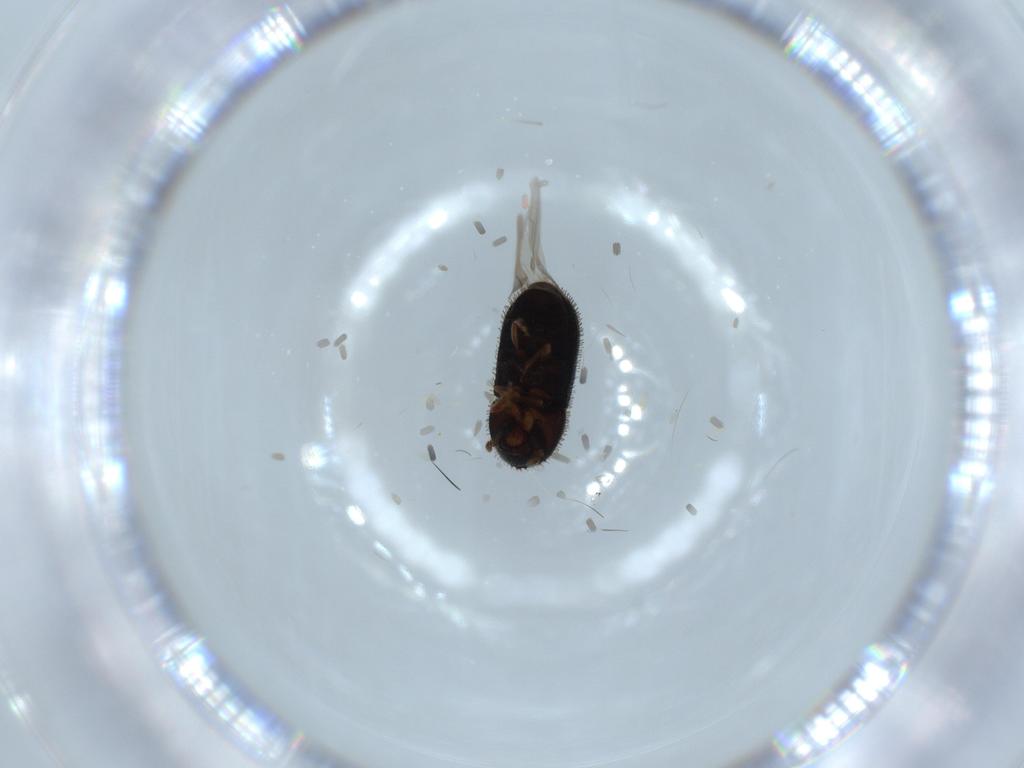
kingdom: Animalia
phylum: Arthropoda
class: Insecta
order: Coleoptera
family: Curculionidae
